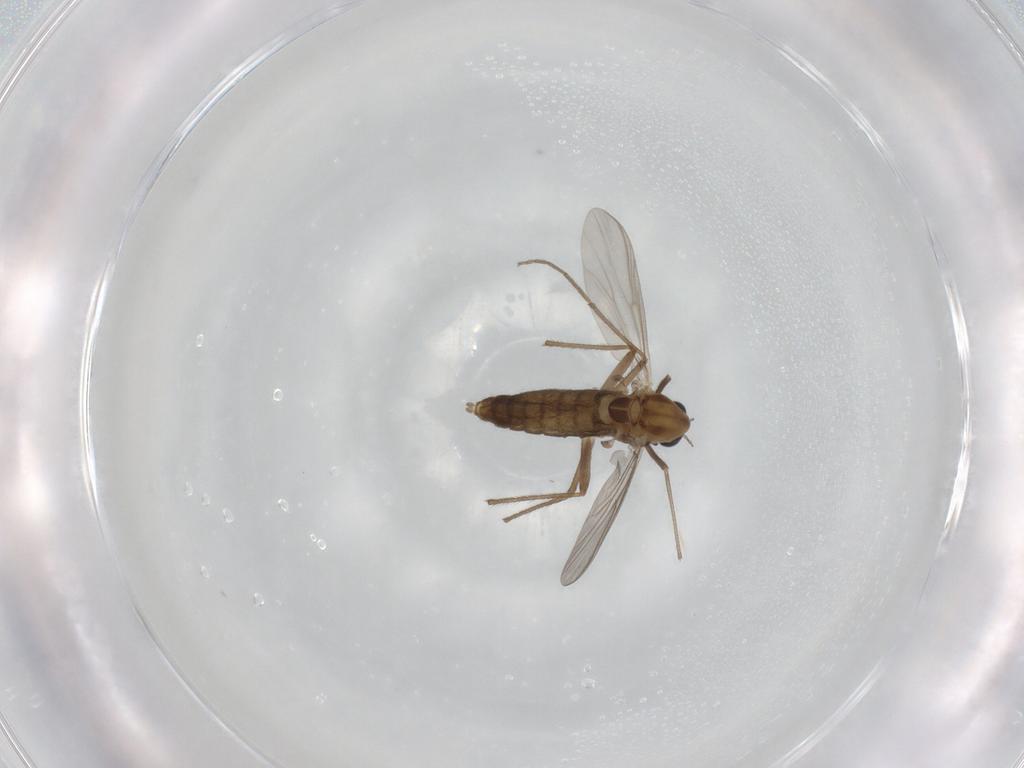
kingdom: Animalia
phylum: Arthropoda
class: Insecta
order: Diptera
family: Chironomidae
